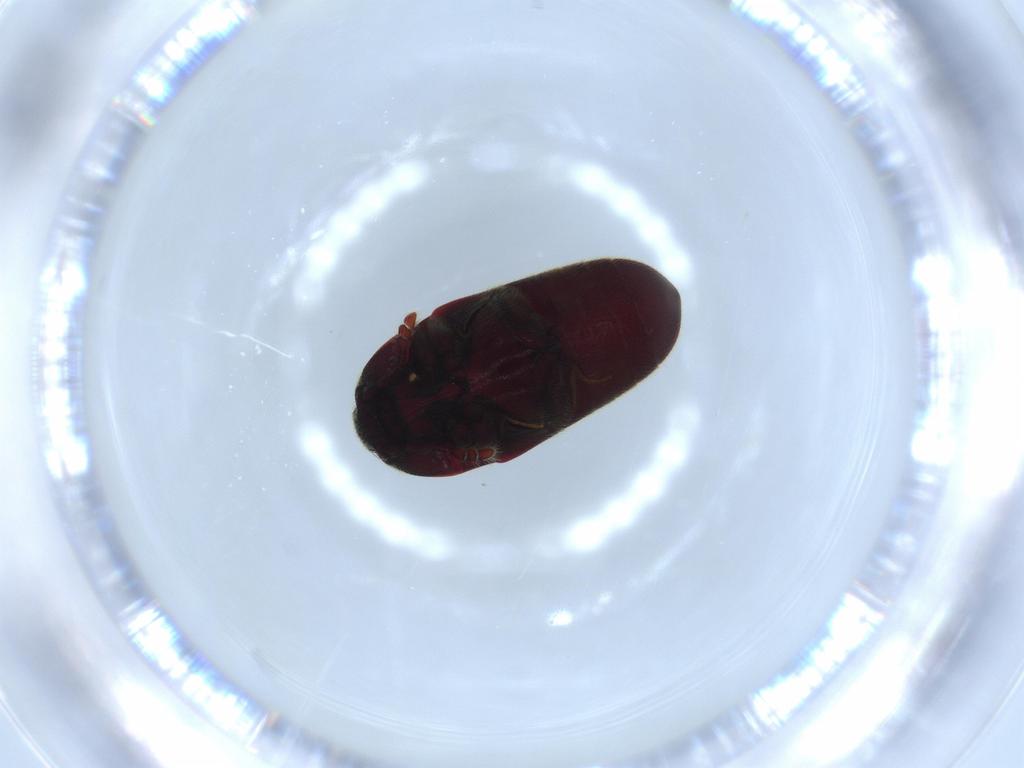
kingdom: Animalia
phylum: Arthropoda
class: Insecta
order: Coleoptera
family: Throscidae
